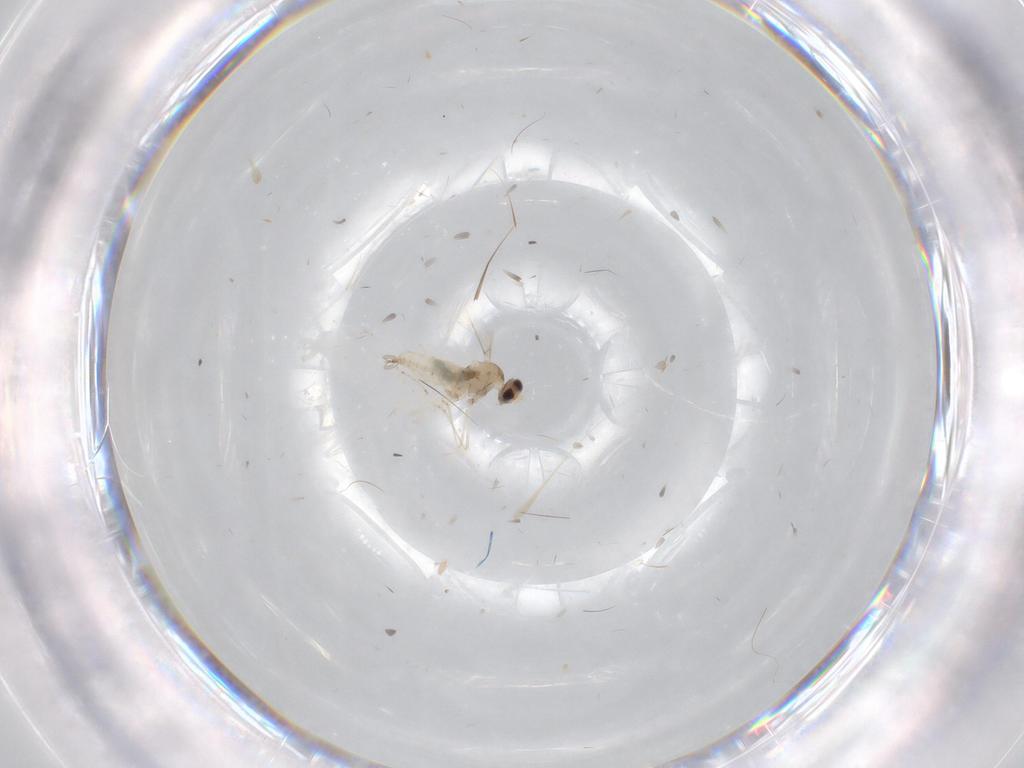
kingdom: Animalia
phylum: Arthropoda
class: Insecta
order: Diptera
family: Cecidomyiidae
